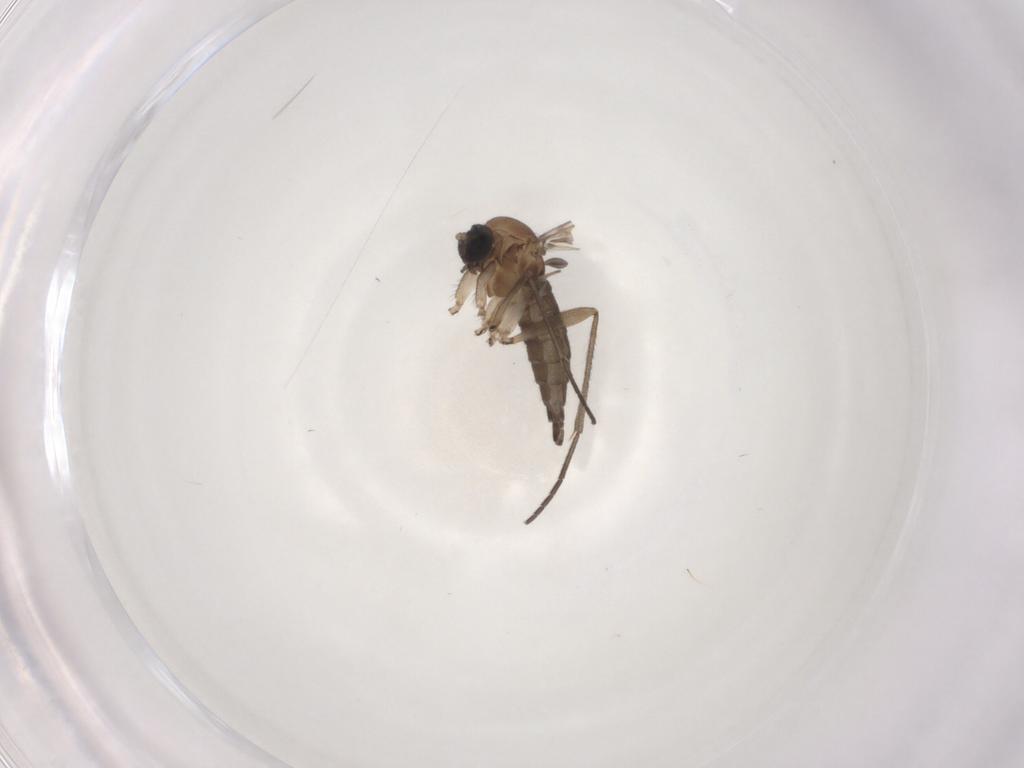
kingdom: Animalia
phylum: Arthropoda
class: Insecta
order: Diptera
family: Sciaridae
